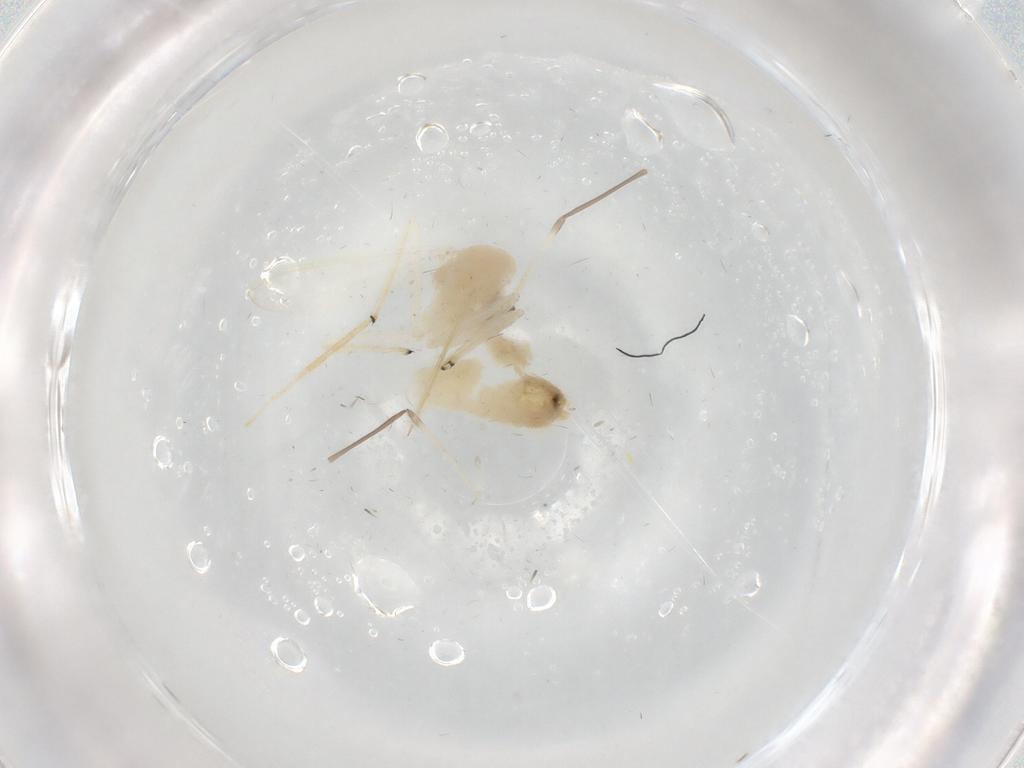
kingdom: Animalia
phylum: Arthropoda
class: Insecta
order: Diptera
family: Chironomidae
